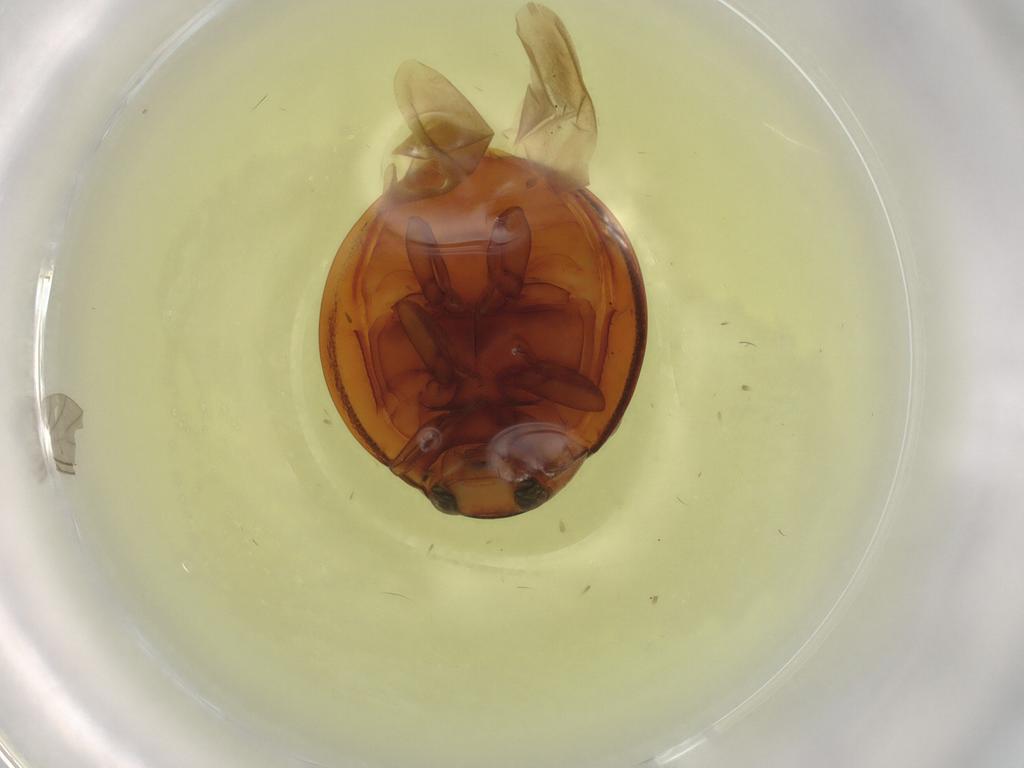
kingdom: Animalia
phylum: Arthropoda
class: Insecta
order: Coleoptera
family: Coccinellidae
